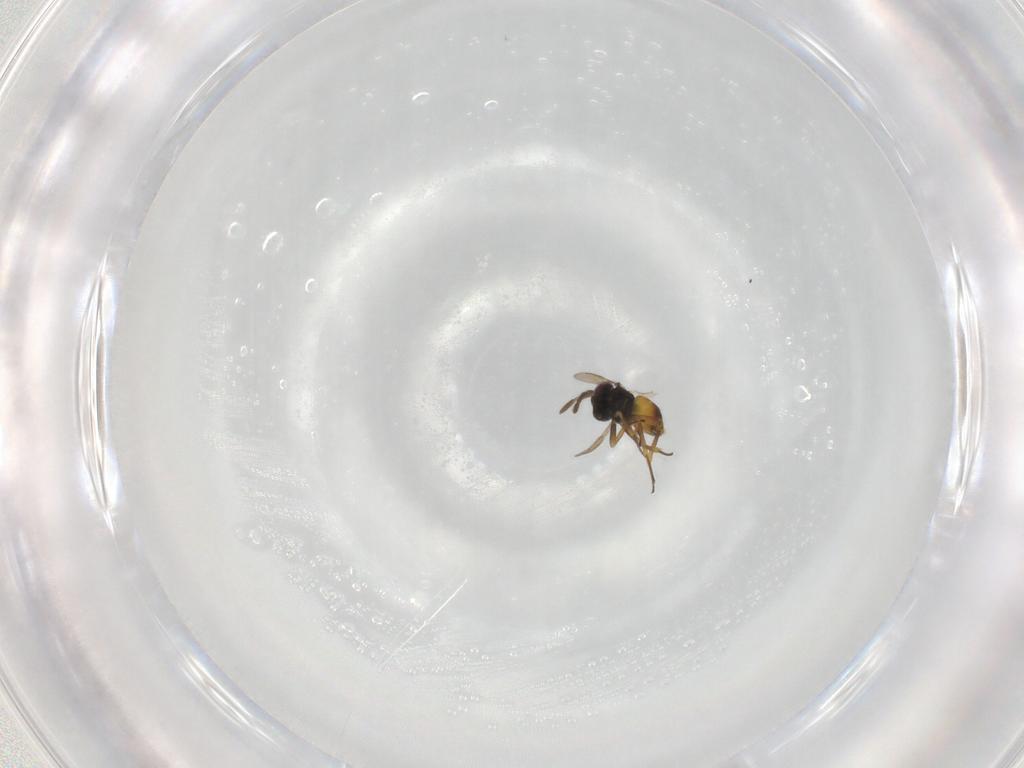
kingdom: Animalia
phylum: Arthropoda
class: Insecta
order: Hymenoptera
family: Aphelinidae
